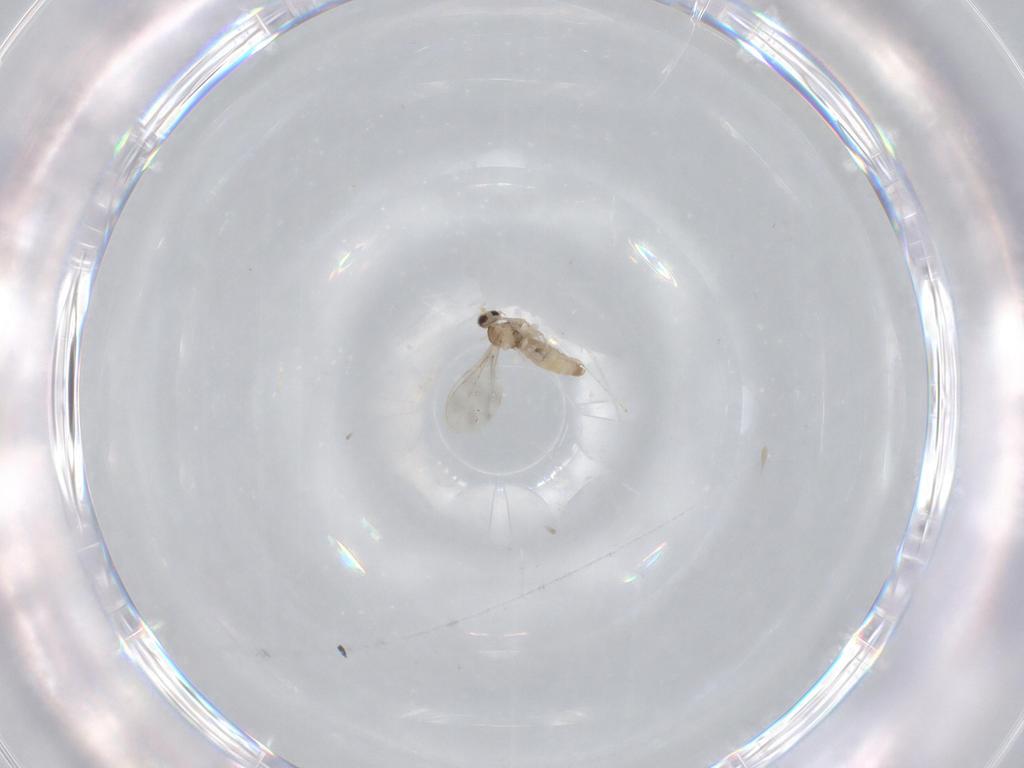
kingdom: Animalia
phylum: Arthropoda
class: Insecta
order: Diptera
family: Cecidomyiidae
